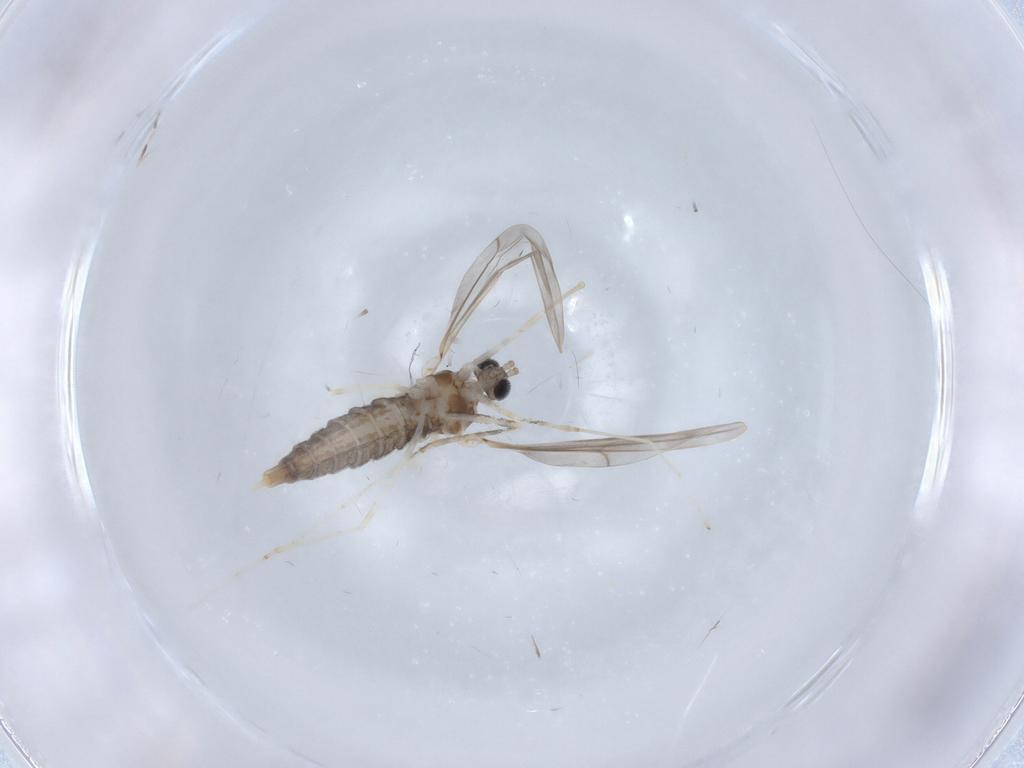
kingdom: Animalia
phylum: Arthropoda
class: Insecta
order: Diptera
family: Cecidomyiidae
